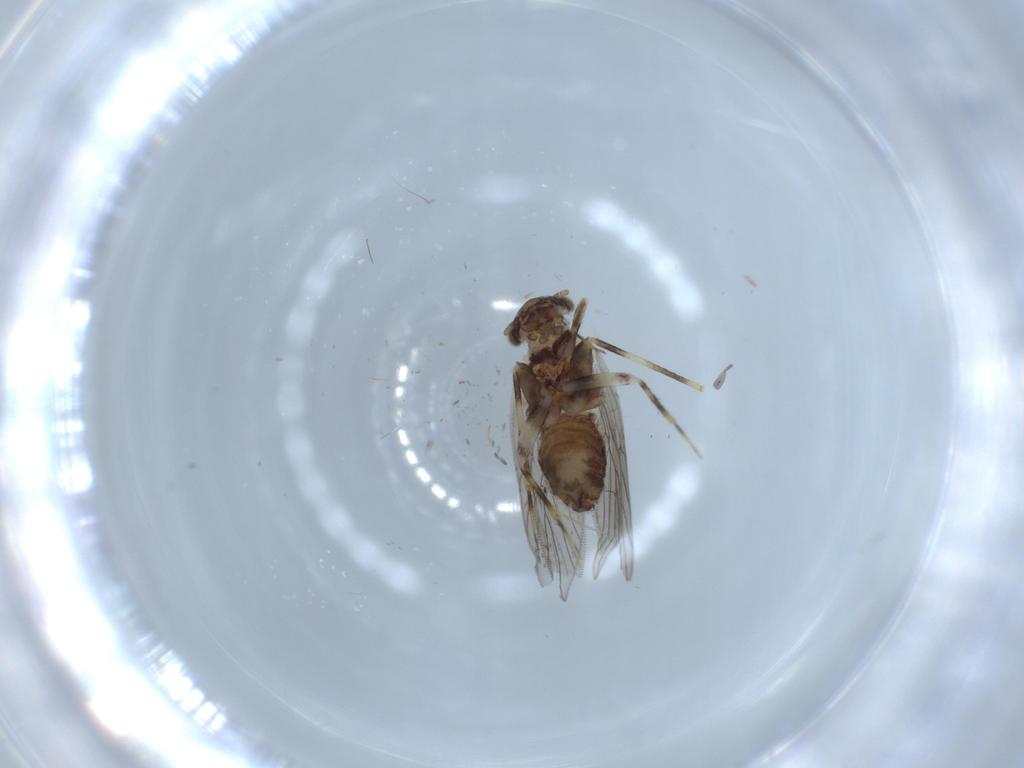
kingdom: Animalia
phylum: Arthropoda
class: Insecta
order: Psocodea
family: Lepidopsocidae
